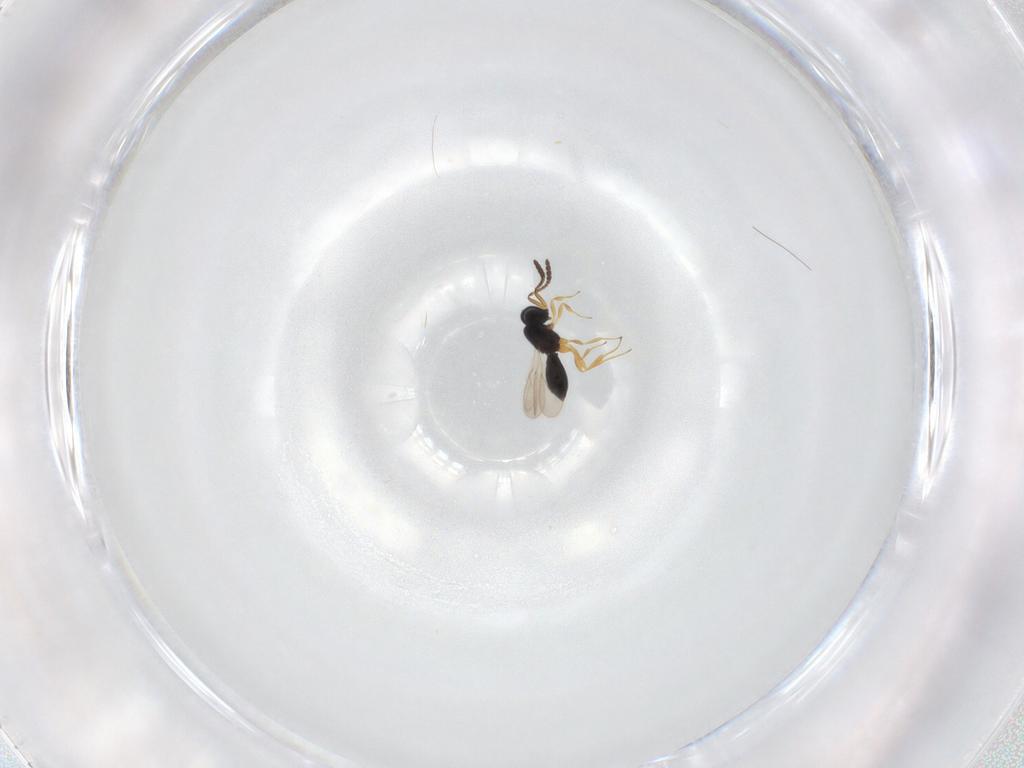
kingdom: Animalia
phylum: Arthropoda
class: Insecta
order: Hymenoptera
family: Scelionidae
